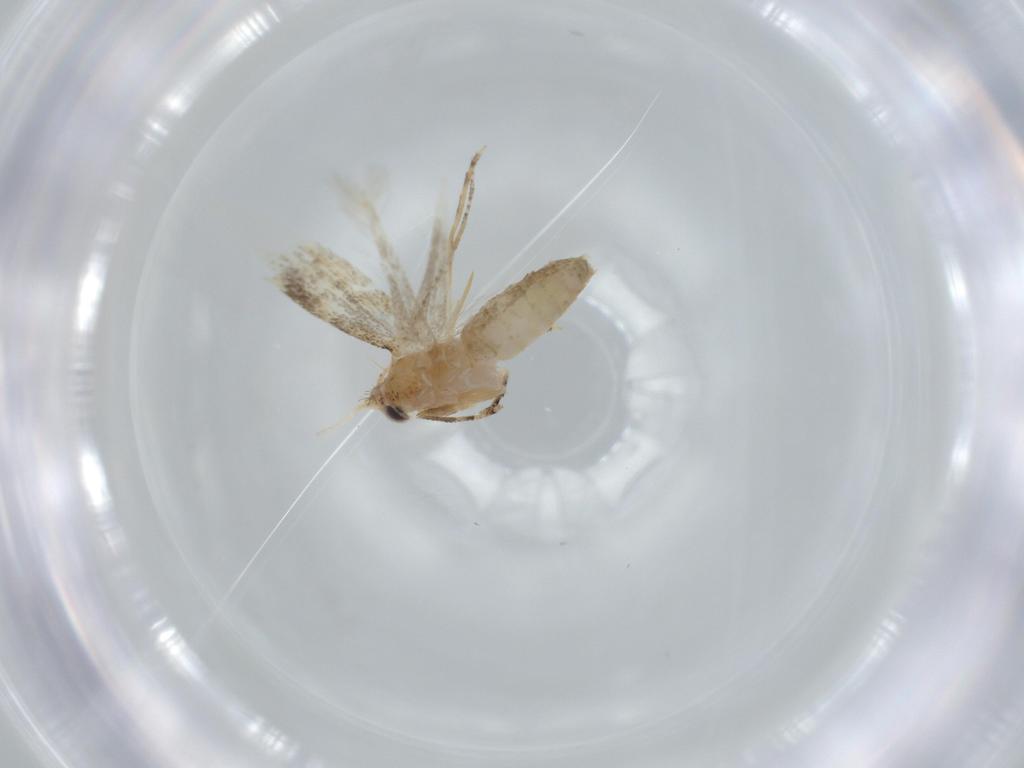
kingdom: Animalia
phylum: Arthropoda
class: Insecta
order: Lepidoptera
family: Bucculatricidae
